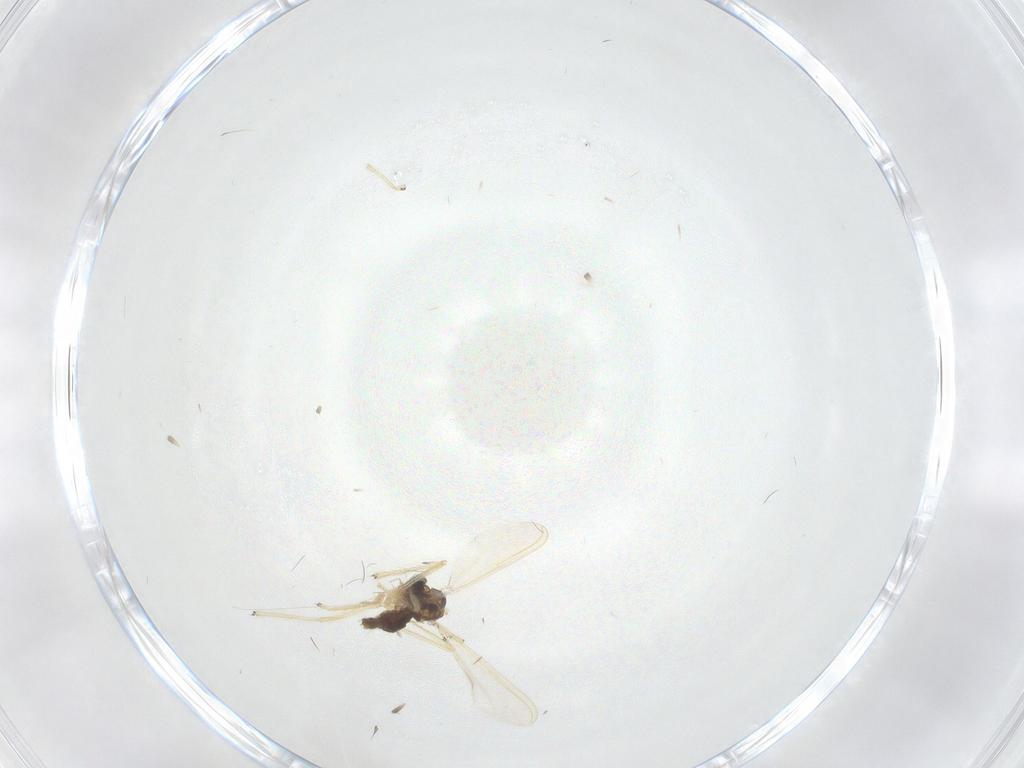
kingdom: Animalia
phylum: Arthropoda
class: Insecta
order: Diptera
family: Chironomidae
